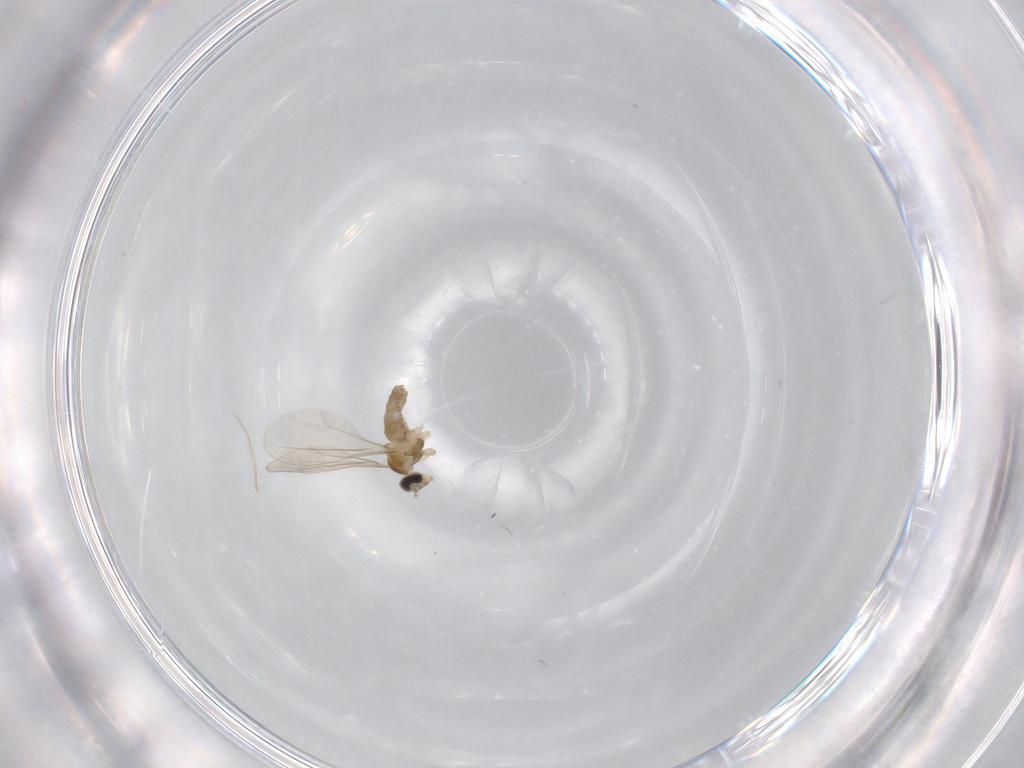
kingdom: Animalia
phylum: Arthropoda
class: Insecta
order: Diptera
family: Cecidomyiidae
